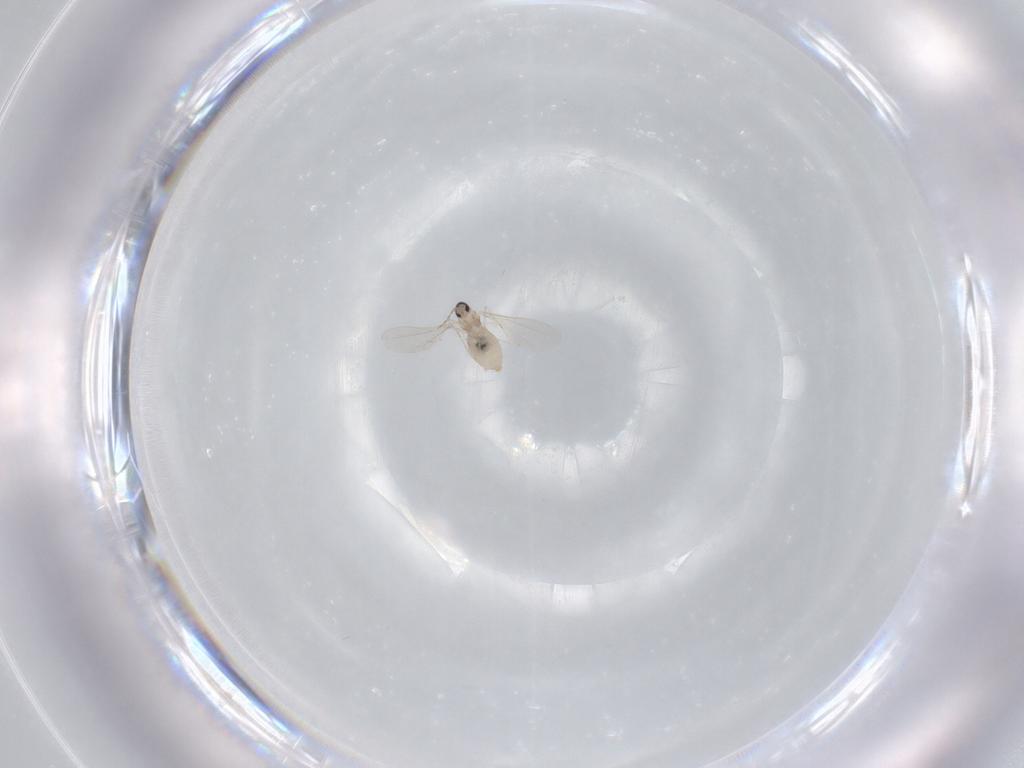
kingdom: Animalia
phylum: Arthropoda
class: Insecta
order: Diptera
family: Cecidomyiidae
